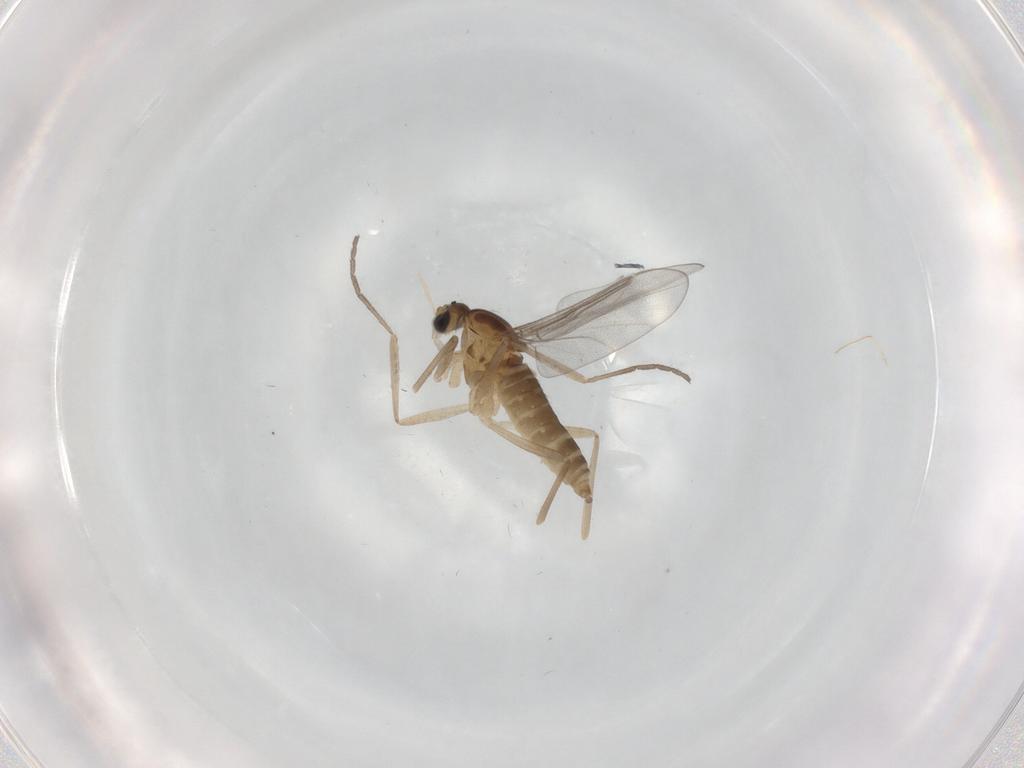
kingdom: Animalia
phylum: Arthropoda
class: Insecta
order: Diptera
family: Cecidomyiidae
